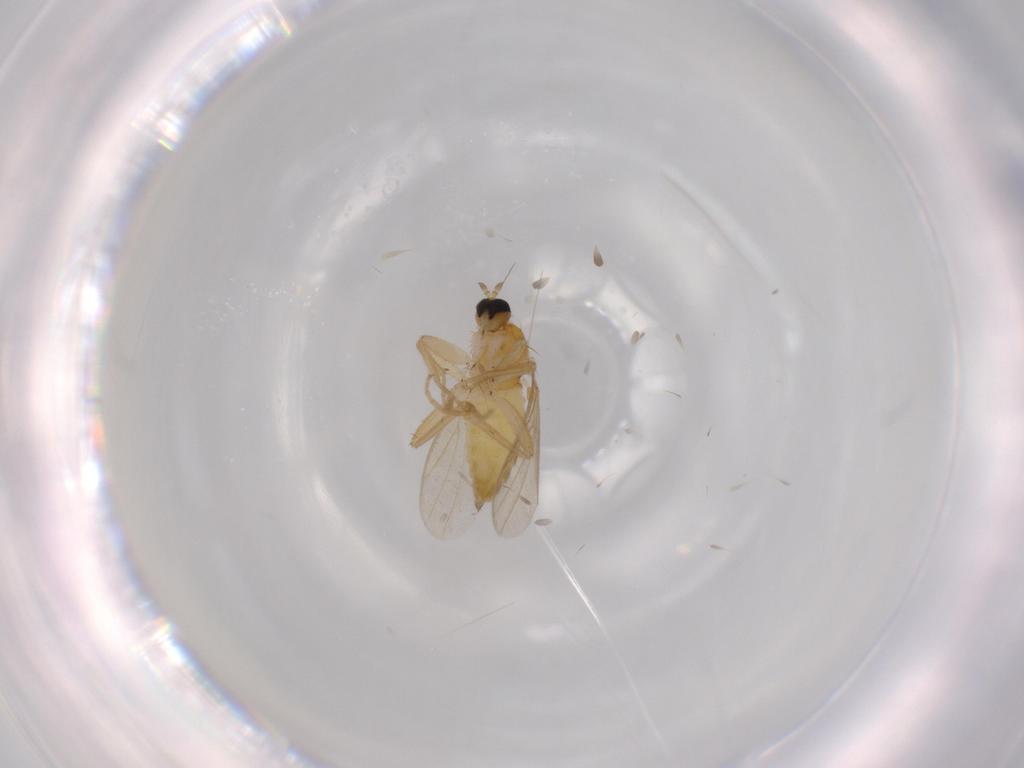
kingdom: Animalia
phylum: Arthropoda
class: Insecta
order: Diptera
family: Hybotidae
